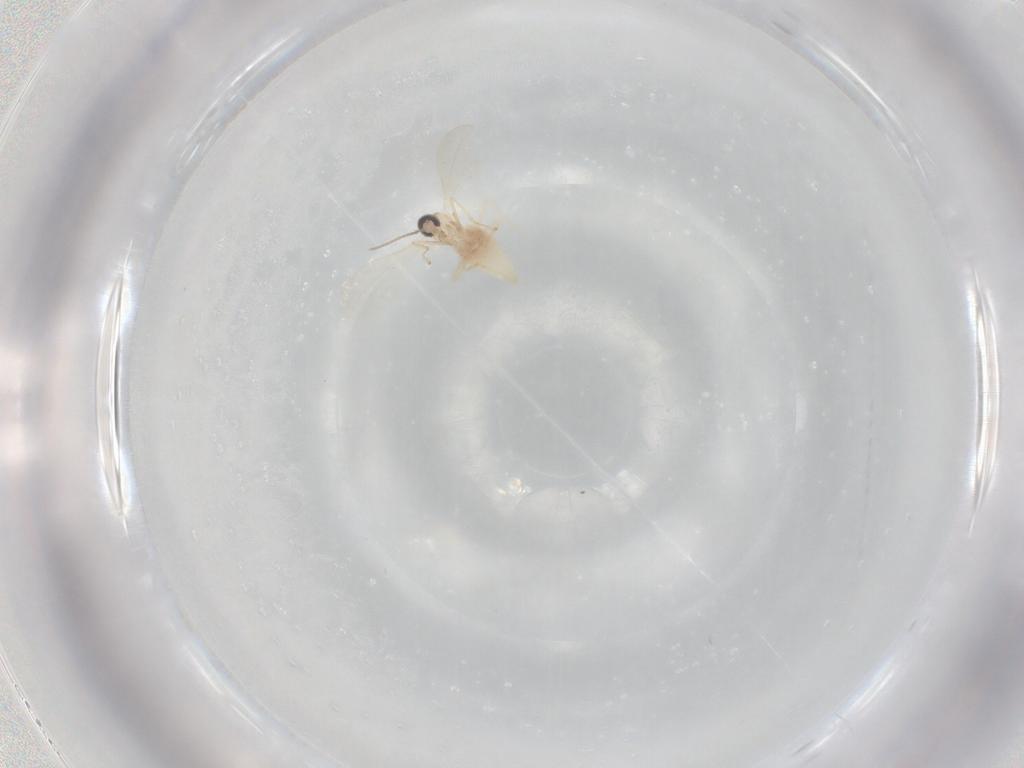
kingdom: Animalia
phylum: Arthropoda
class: Insecta
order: Diptera
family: Cecidomyiidae
